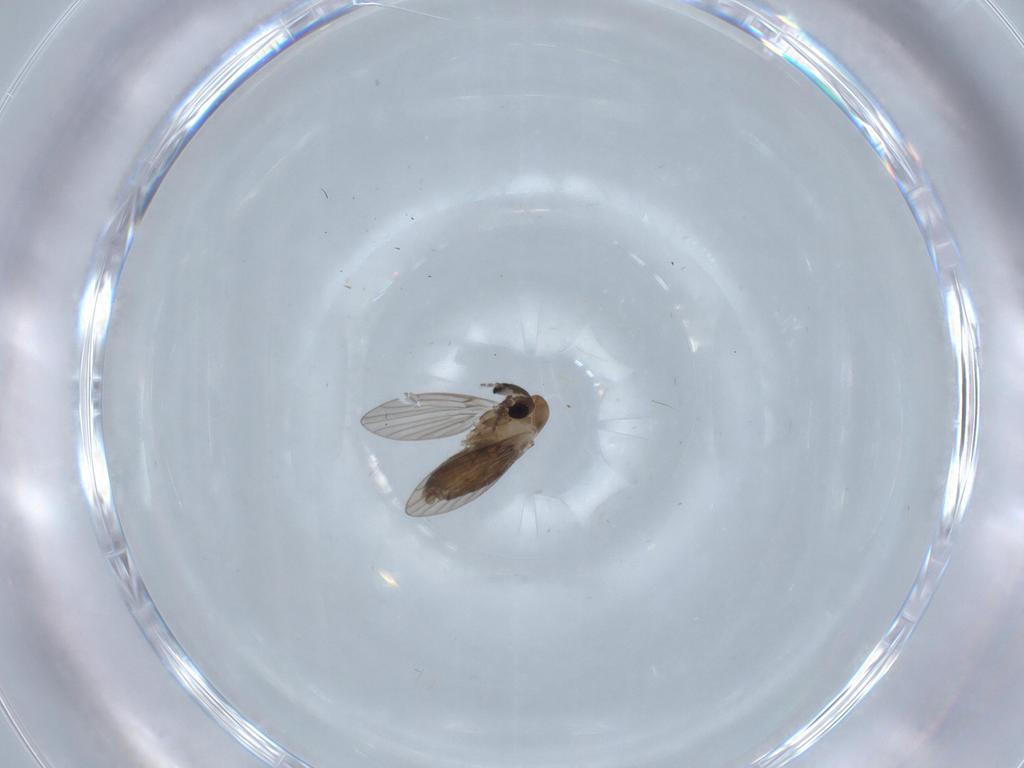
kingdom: Animalia
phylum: Arthropoda
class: Insecta
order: Diptera
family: Psychodidae
